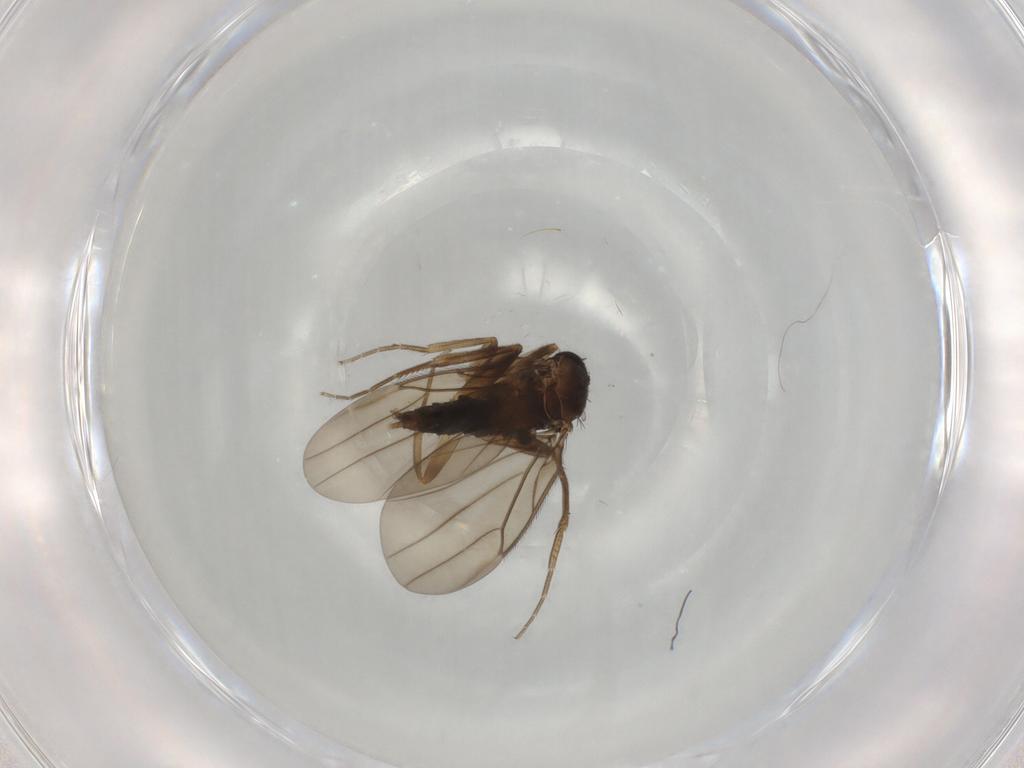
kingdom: Animalia
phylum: Arthropoda
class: Insecta
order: Diptera
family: Phoridae
